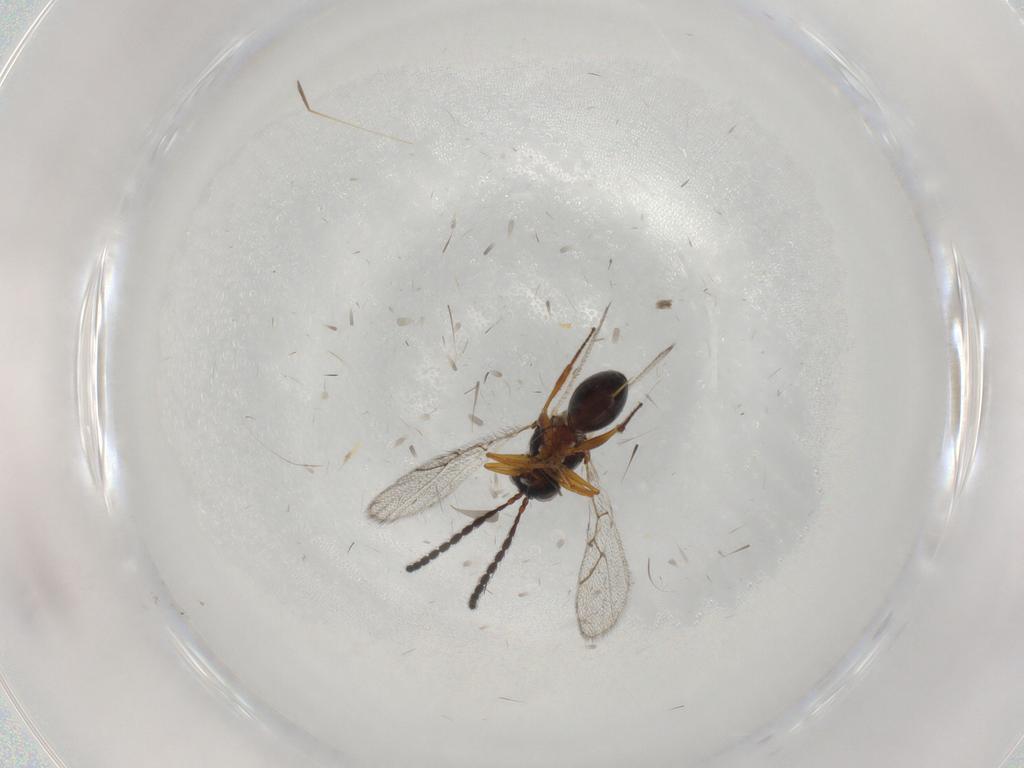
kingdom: Animalia
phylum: Arthropoda
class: Insecta
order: Hymenoptera
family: Figitidae
